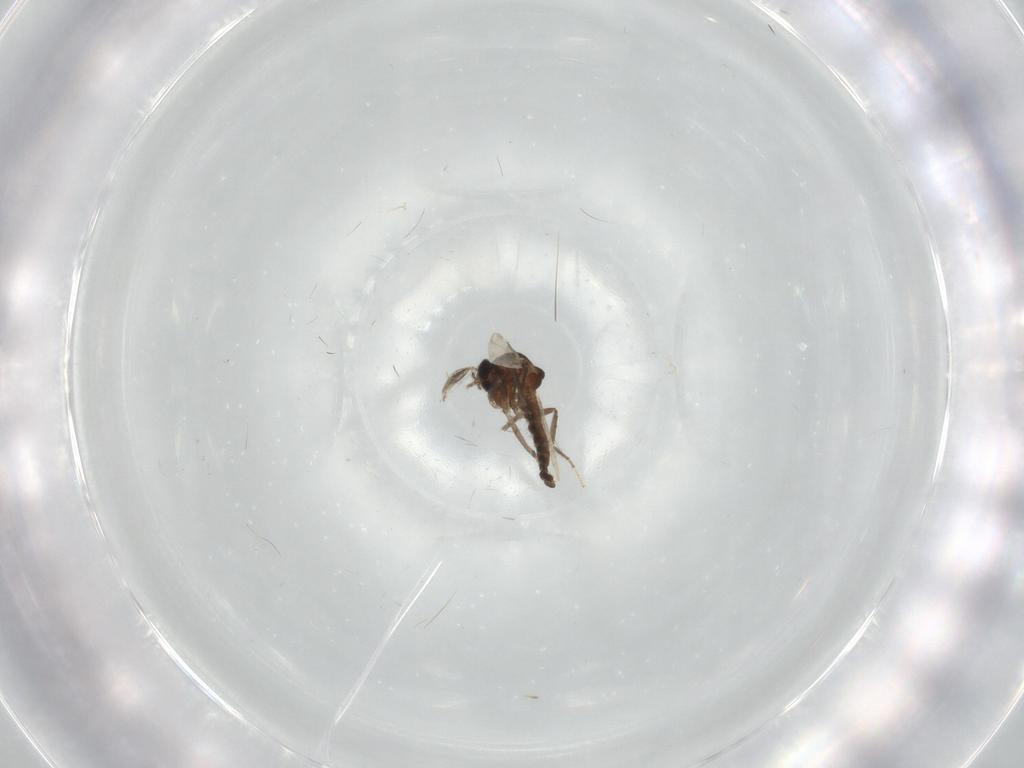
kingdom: Animalia
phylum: Arthropoda
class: Insecta
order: Diptera
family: Ceratopogonidae
